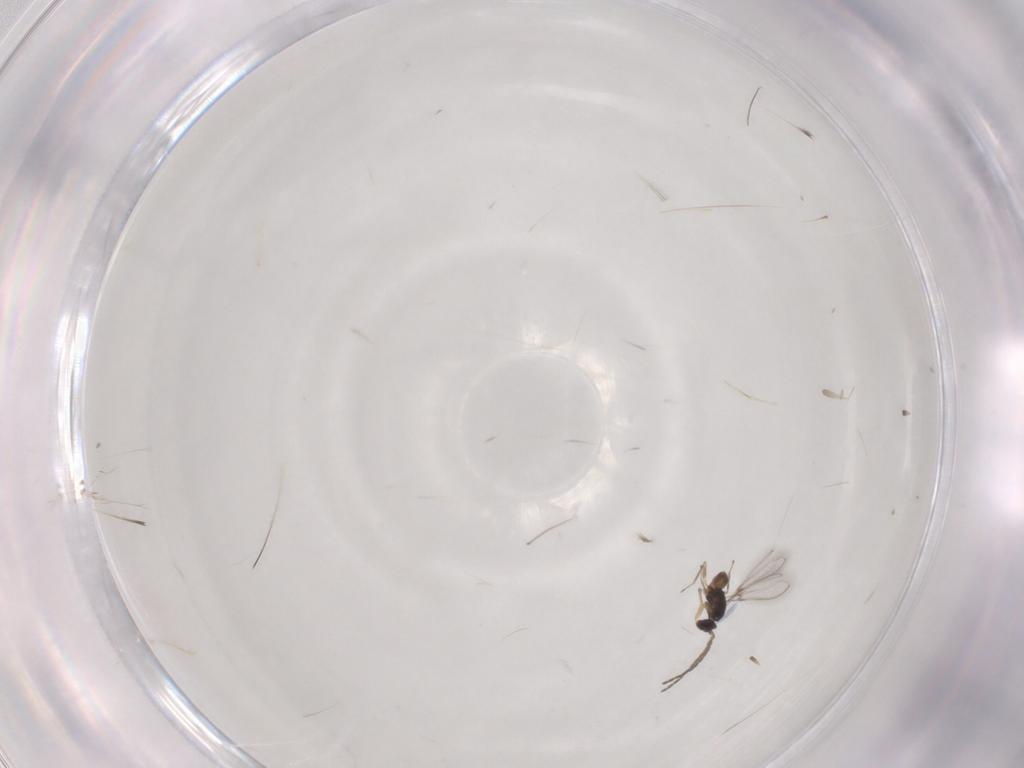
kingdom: Animalia
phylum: Arthropoda
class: Insecta
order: Hymenoptera
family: Mymaridae
